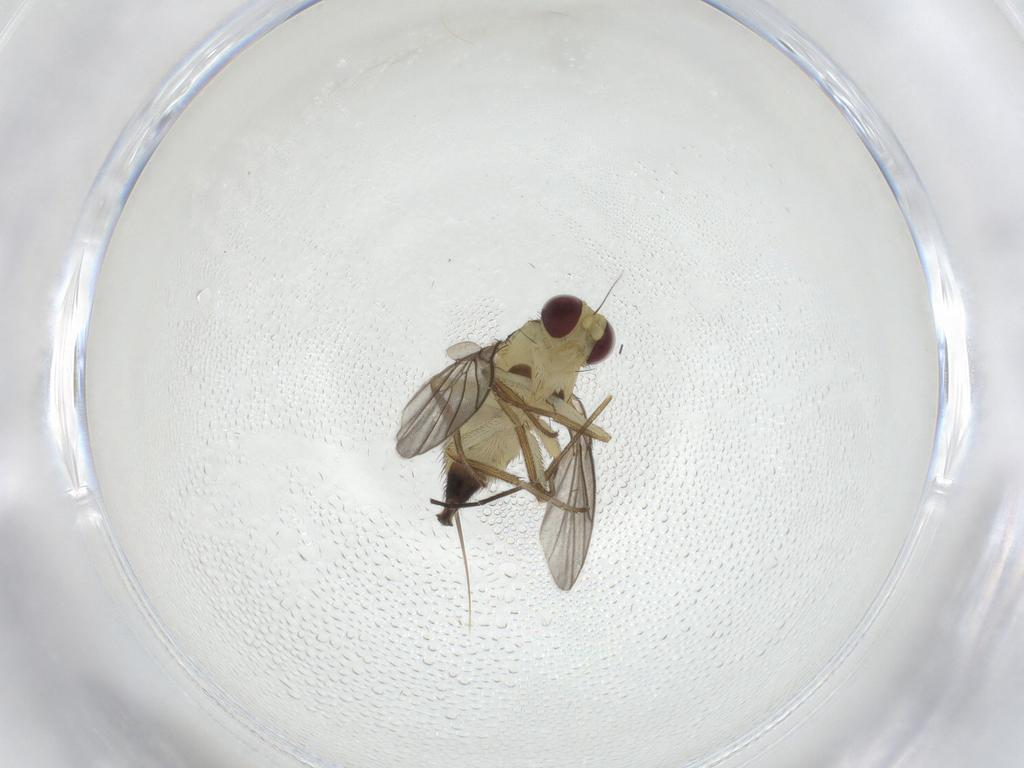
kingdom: Animalia
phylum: Arthropoda
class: Insecta
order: Diptera
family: Agromyzidae
